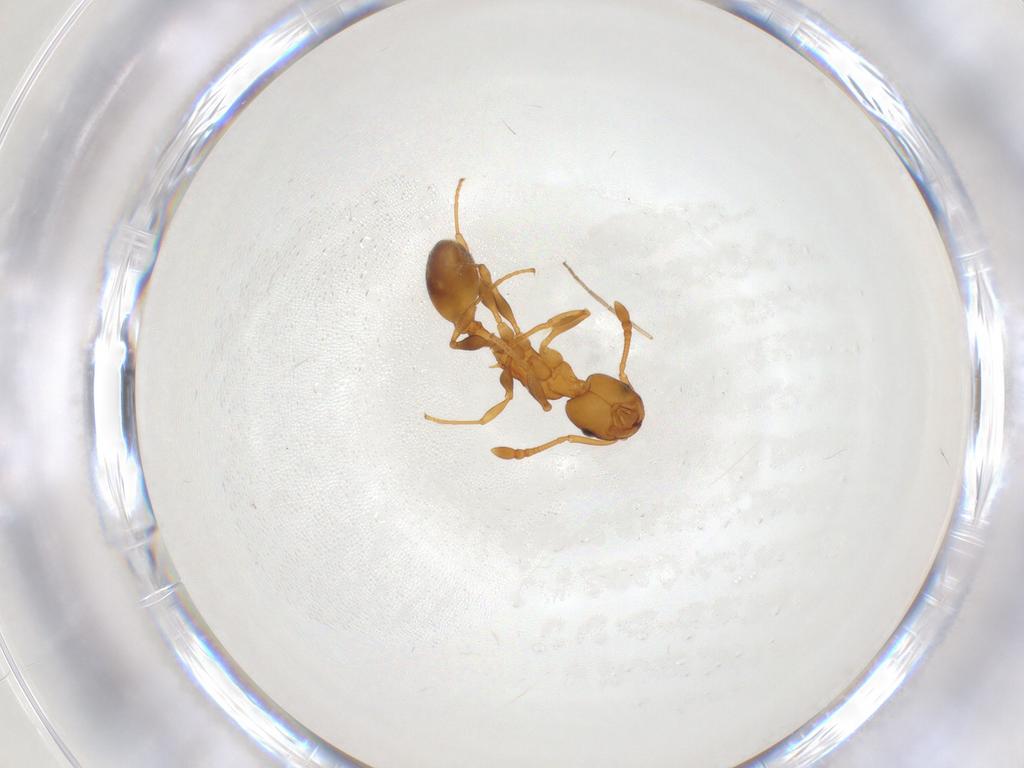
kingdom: Animalia
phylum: Arthropoda
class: Insecta
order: Hymenoptera
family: Formicidae
